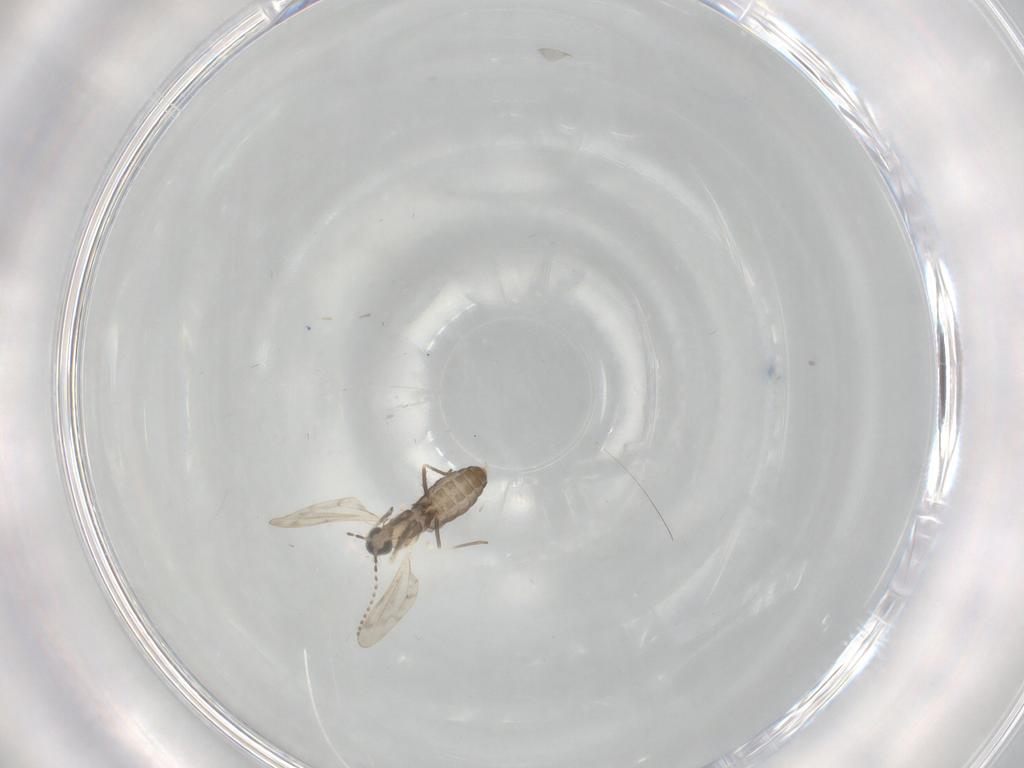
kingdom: Animalia
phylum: Arthropoda
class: Insecta
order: Diptera
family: Cecidomyiidae
